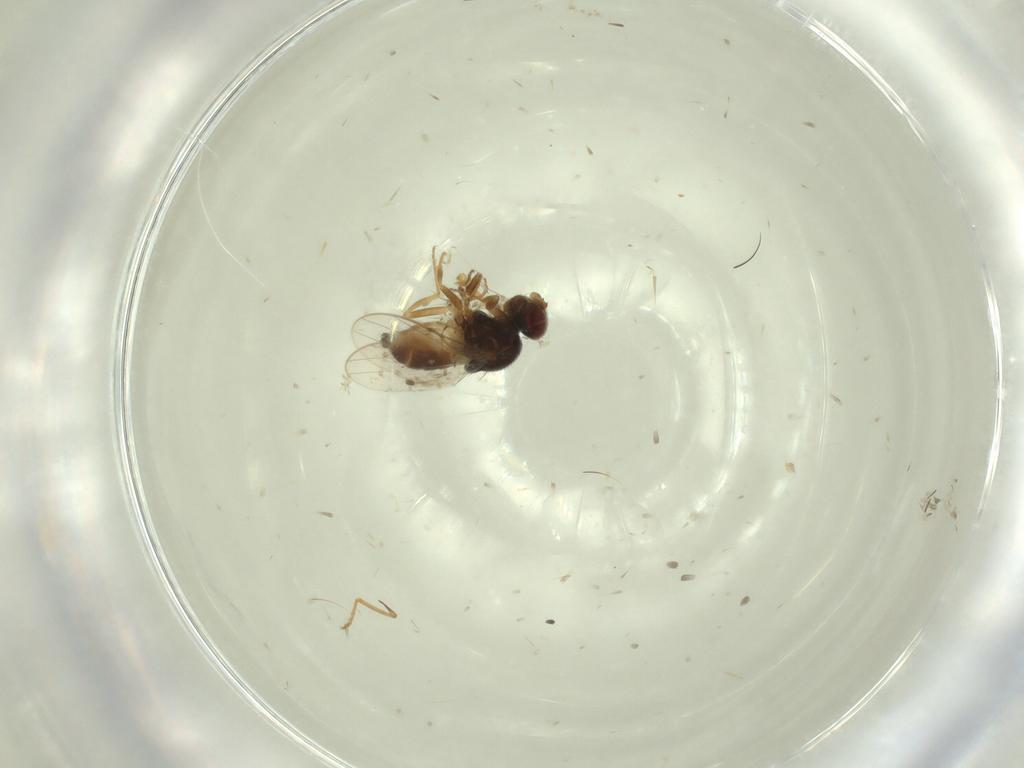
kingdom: Animalia
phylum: Arthropoda
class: Insecta
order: Diptera
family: Chloropidae
